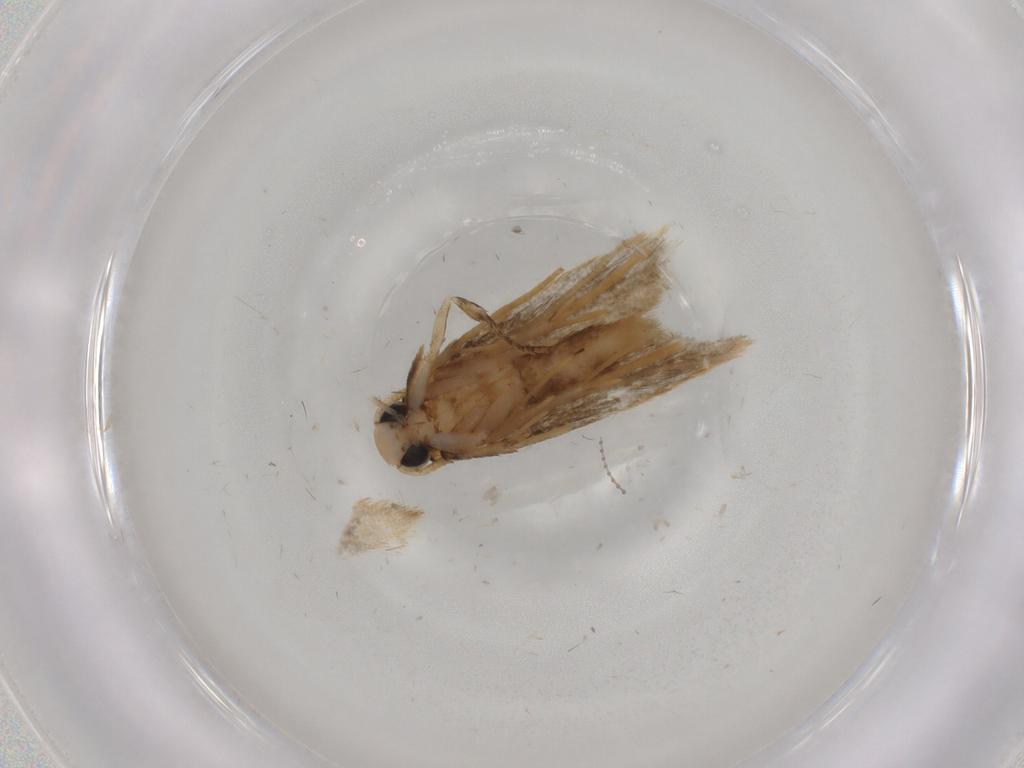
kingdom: Animalia
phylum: Arthropoda
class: Insecta
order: Lepidoptera
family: Cosmopterigidae
